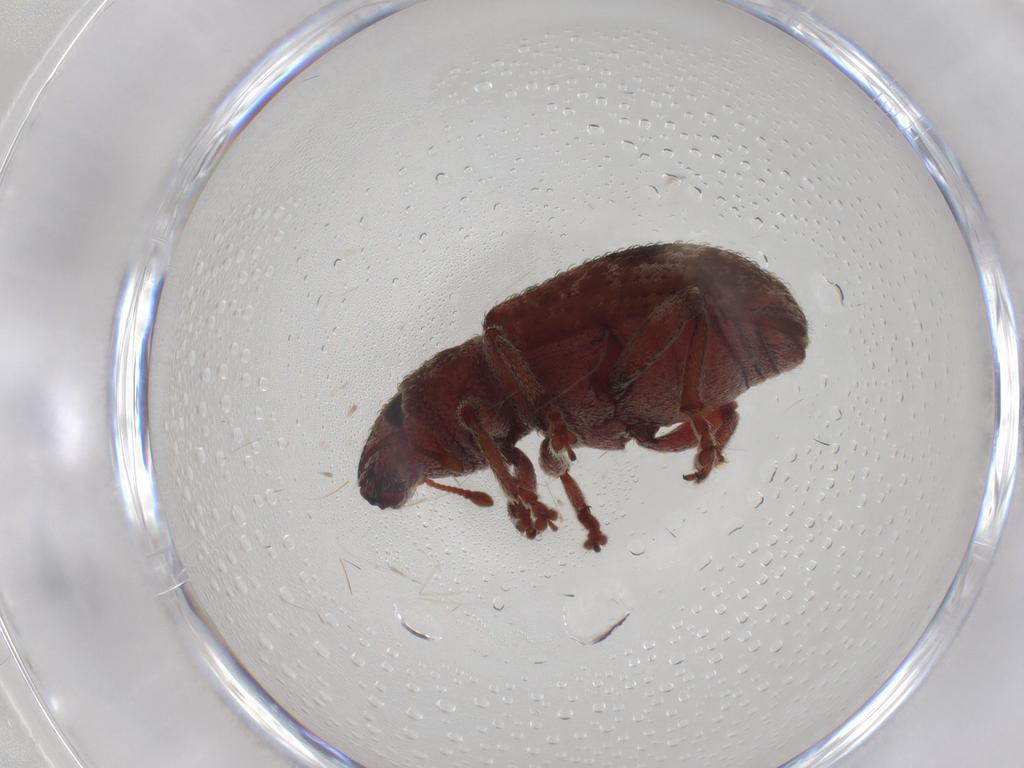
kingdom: Animalia
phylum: Arthropoda
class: Insecta
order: Coleoptera
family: Curculionidae
